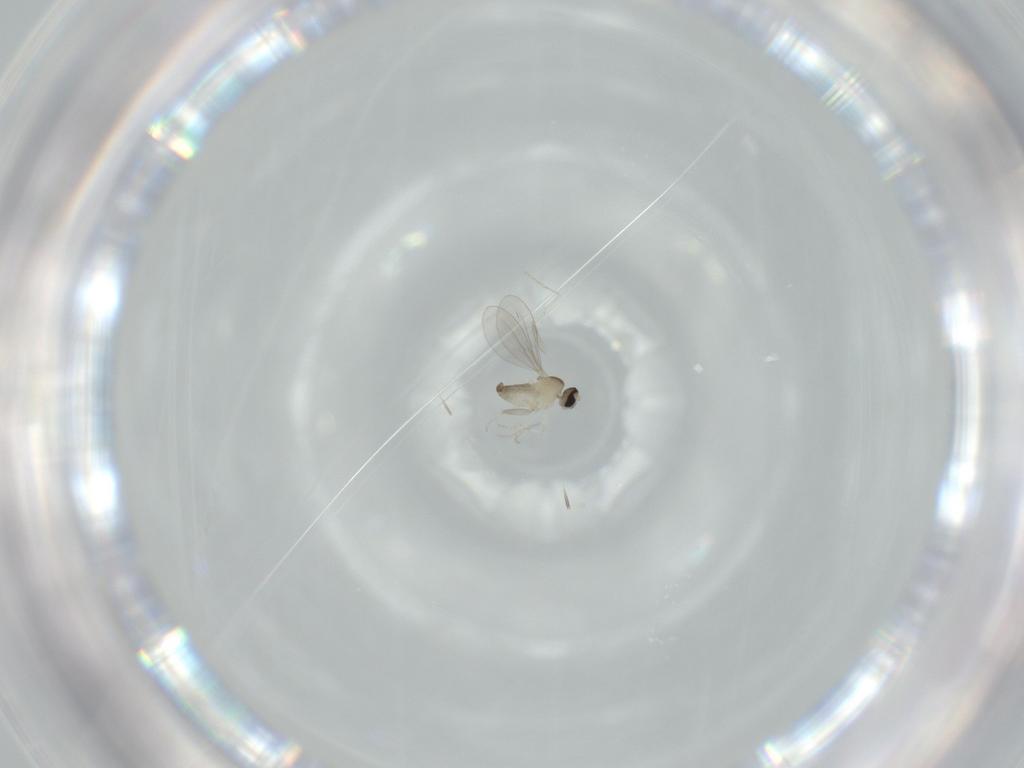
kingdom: Animalia
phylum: Arthropoda
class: Insecta
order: Diptera
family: Cecidomyiidae
